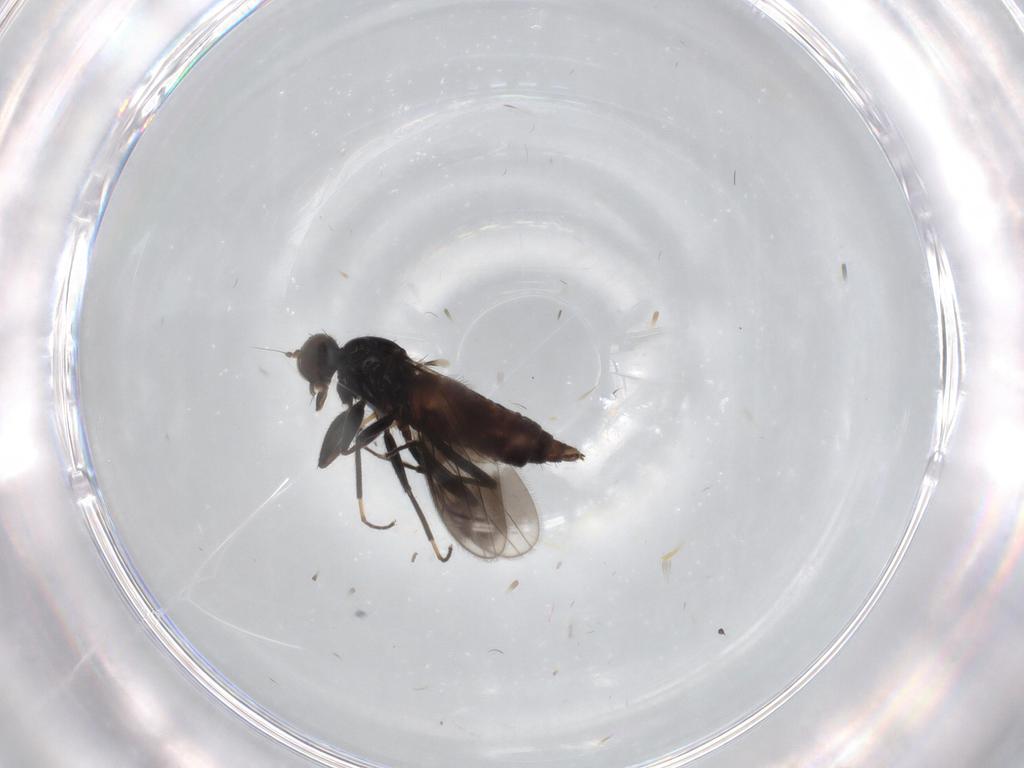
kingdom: Animalia
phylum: Arthropoda
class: Insecta
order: Diptera
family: Hybotidae
